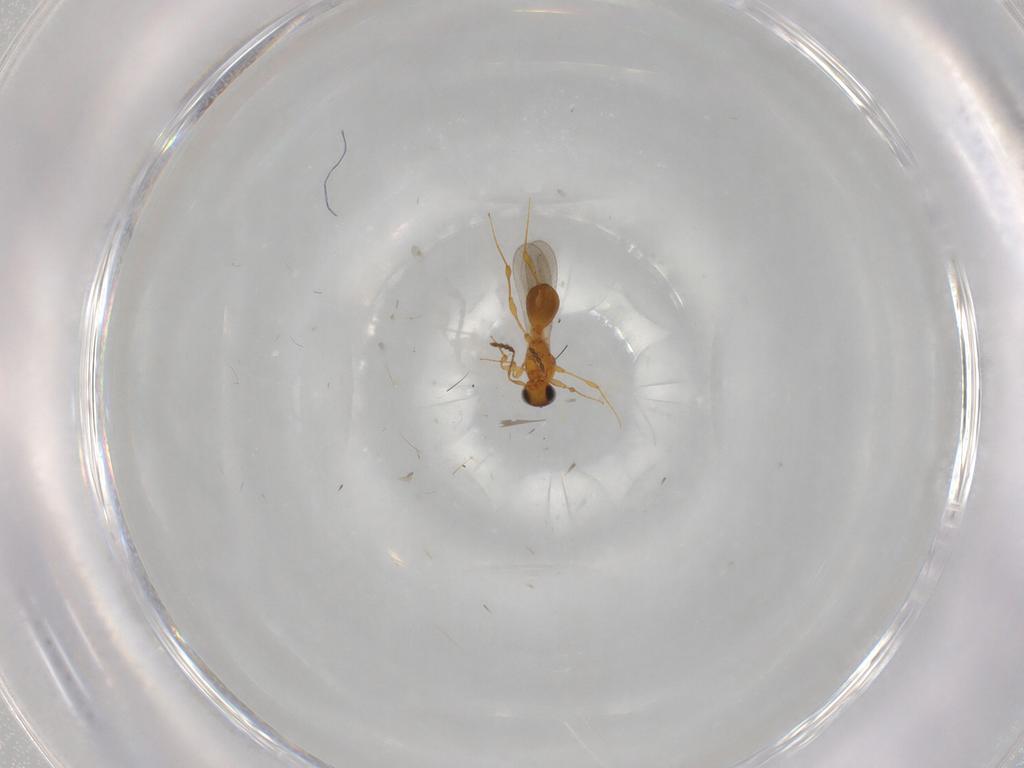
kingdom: Animalia
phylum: Arthropoda
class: Insecta
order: Hymenoptera
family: Platygastridae
